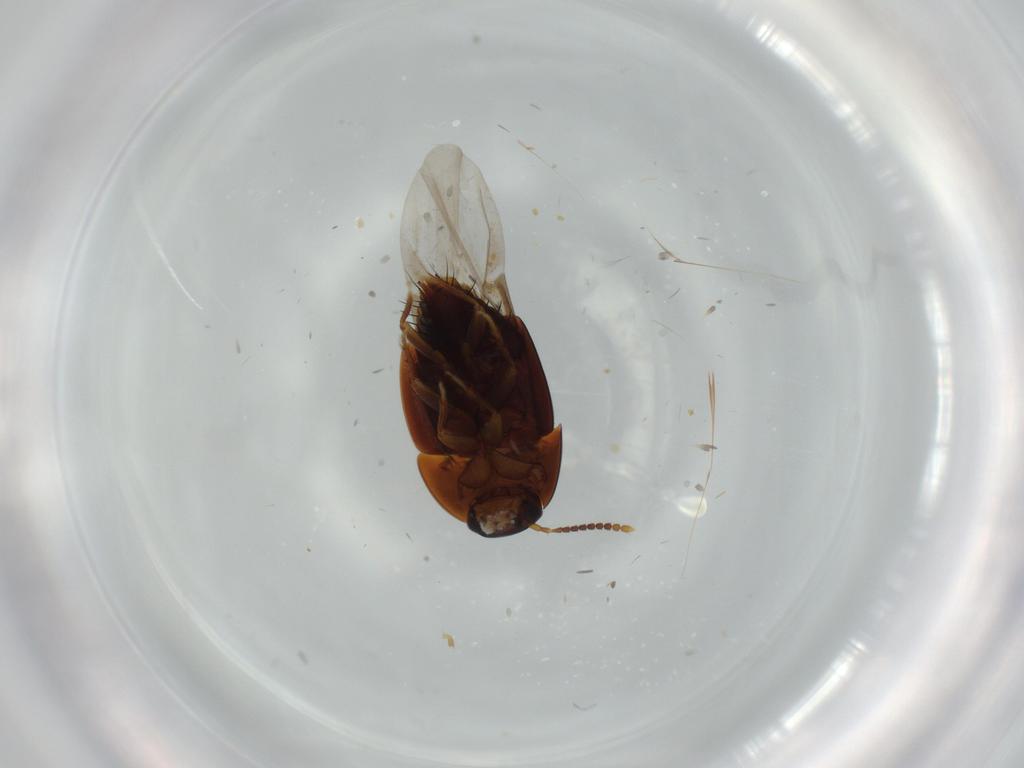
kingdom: Animalia
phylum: Arthropoda
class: Insecta
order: Coleoptera
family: Staphylinidae
